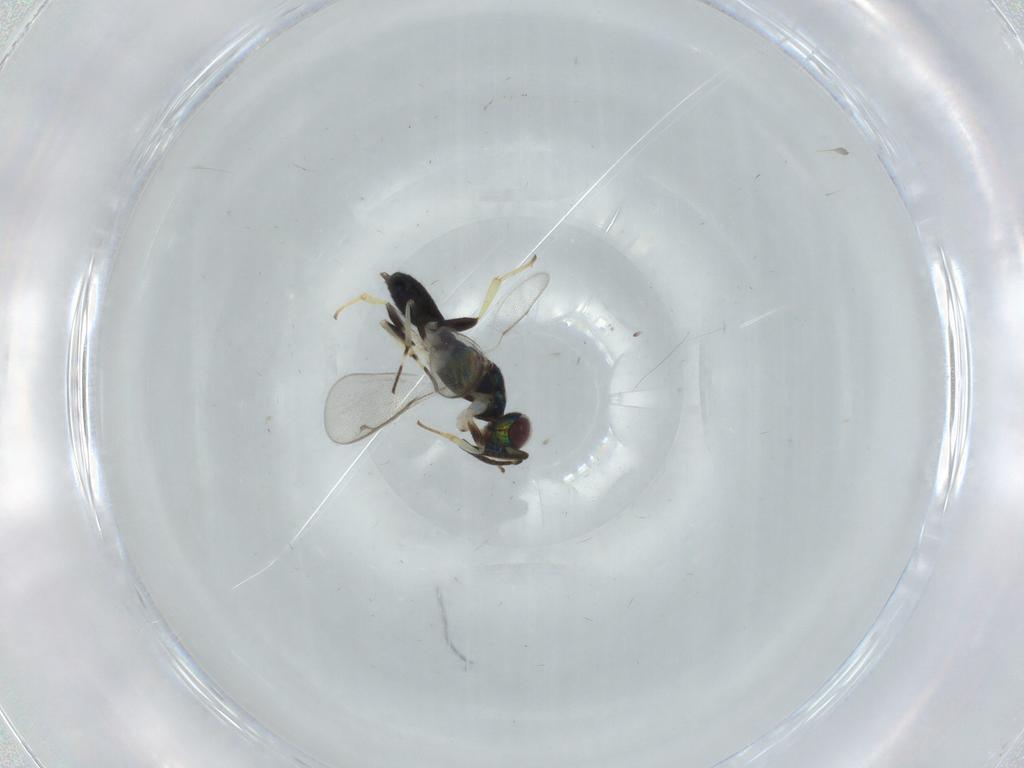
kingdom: Animalia
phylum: Arthropoda
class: Insecta
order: Hymenoptera
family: Eupelmidae
